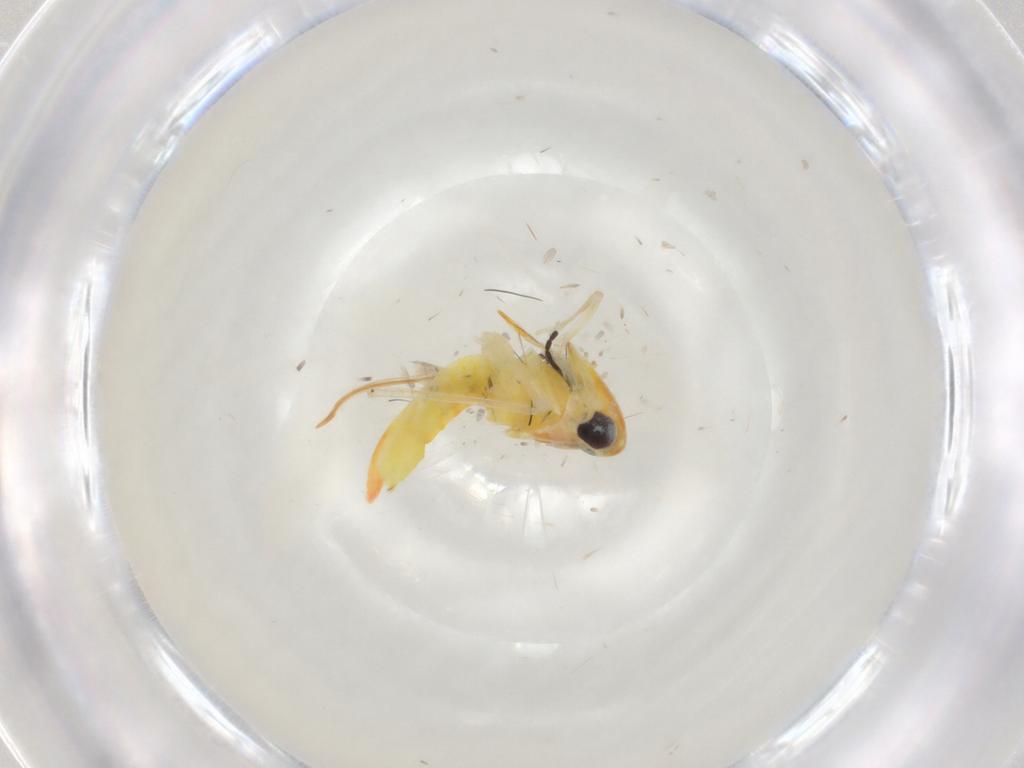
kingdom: Animalia
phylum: Arthropoda
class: Insecta
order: Hemiptera
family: Cicadellidae
